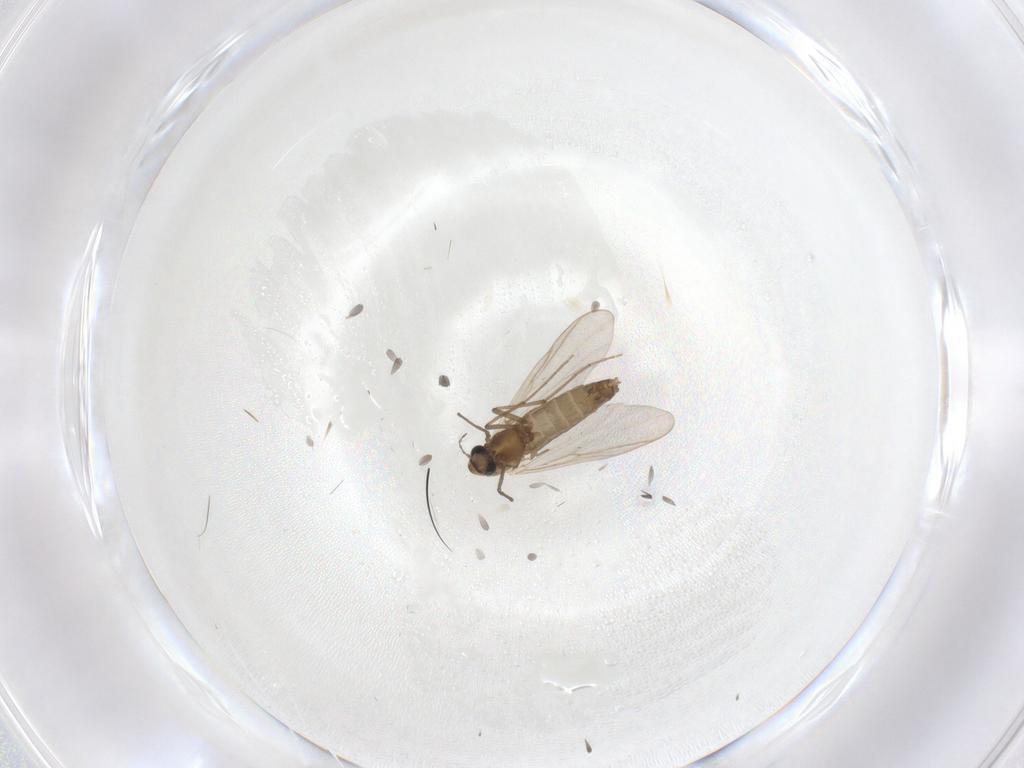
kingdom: Animalia
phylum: Arthropoda
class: Insecta
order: Diptera
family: Chironomidae
